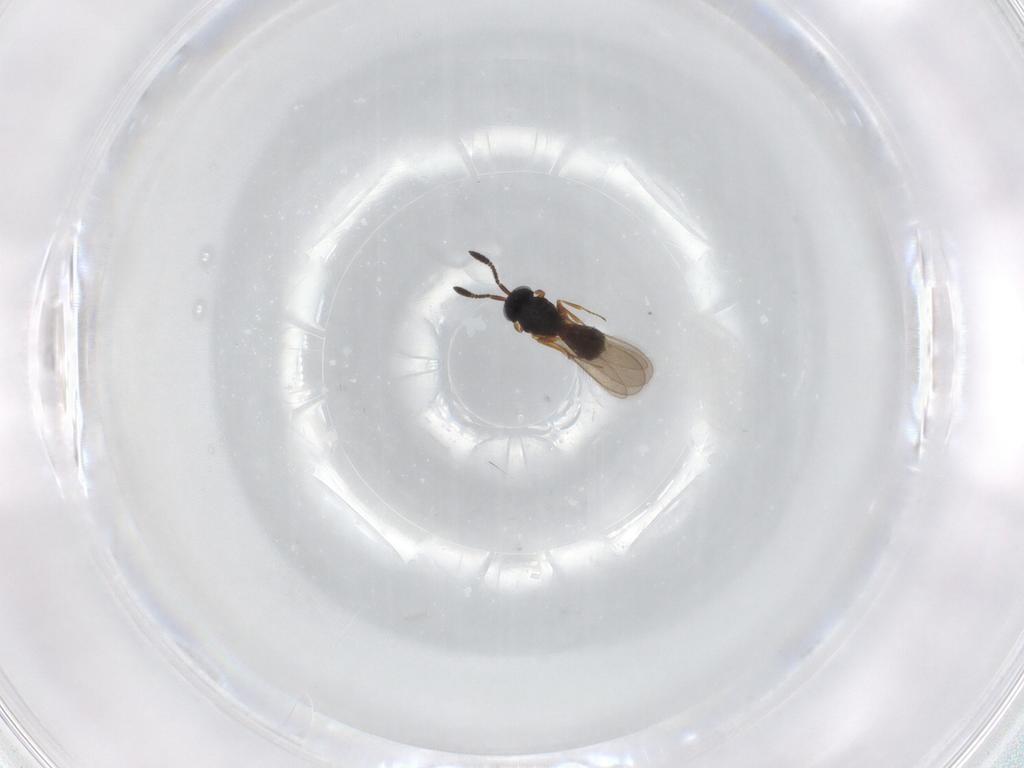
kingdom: Animalia
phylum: Arthropoda
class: Insecta
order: Hymenoptera
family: Scelionidae
